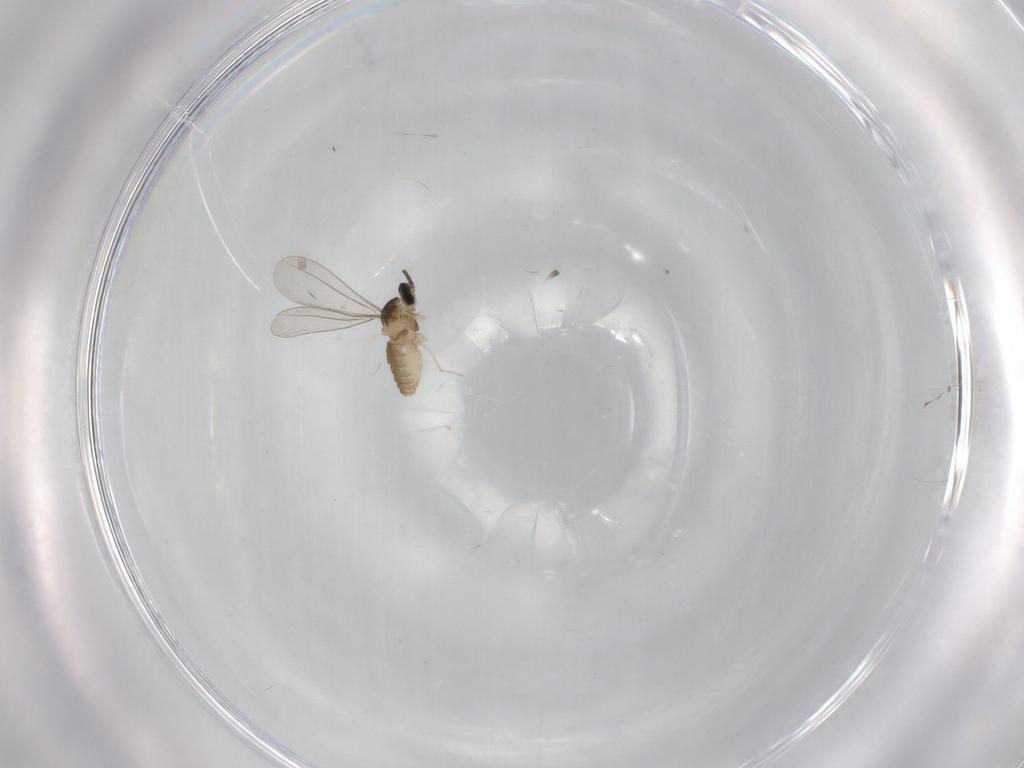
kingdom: Animalia
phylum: Arthropoda
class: Insecta
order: Diptera
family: Cecidomyiidae
